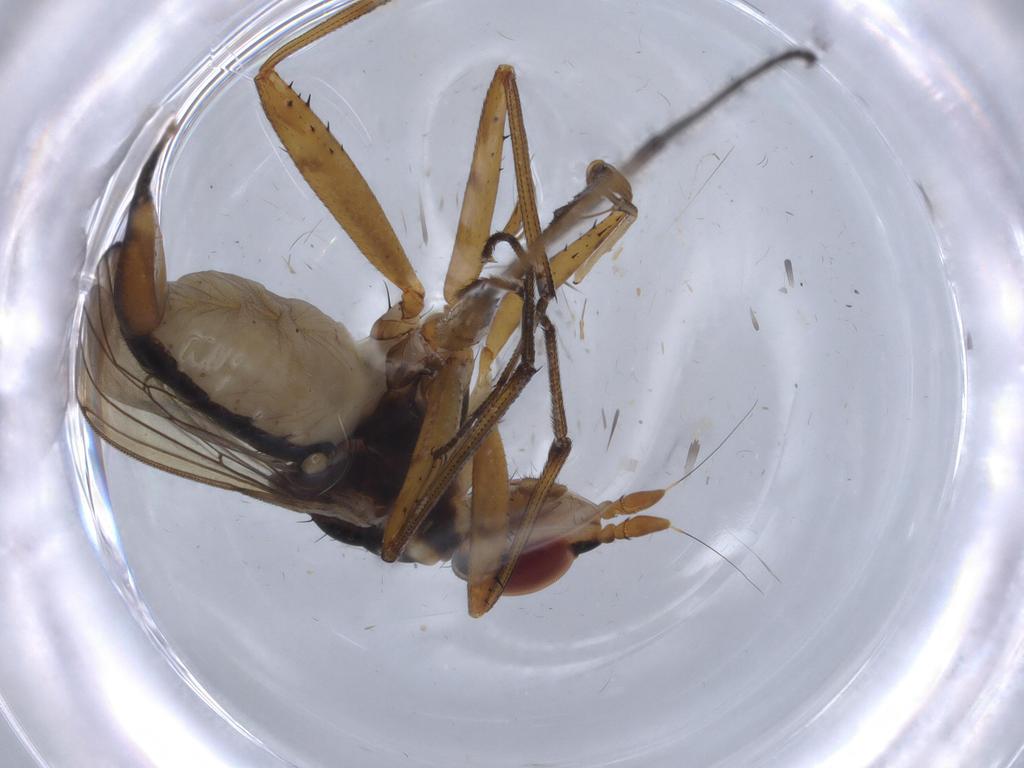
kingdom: Animalia
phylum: Arthropoda
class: Insecta
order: Diptera
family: Neriidae
